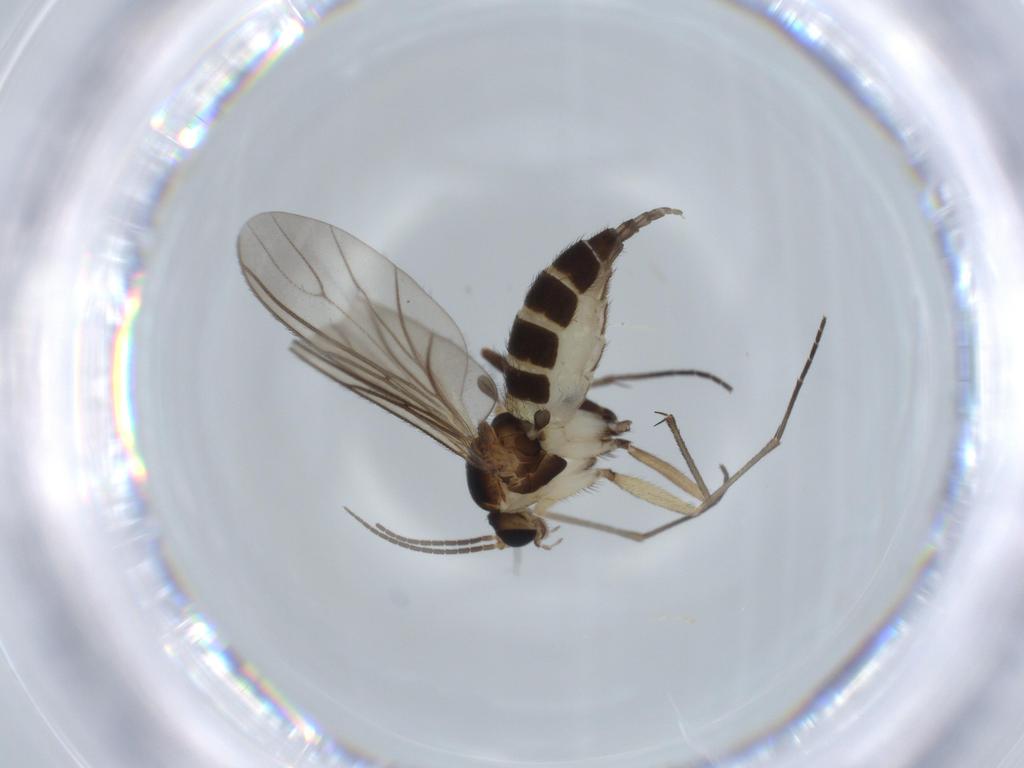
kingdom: Animalia
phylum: Arthropoda
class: Insecta
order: Diptera
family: Sciaridae
